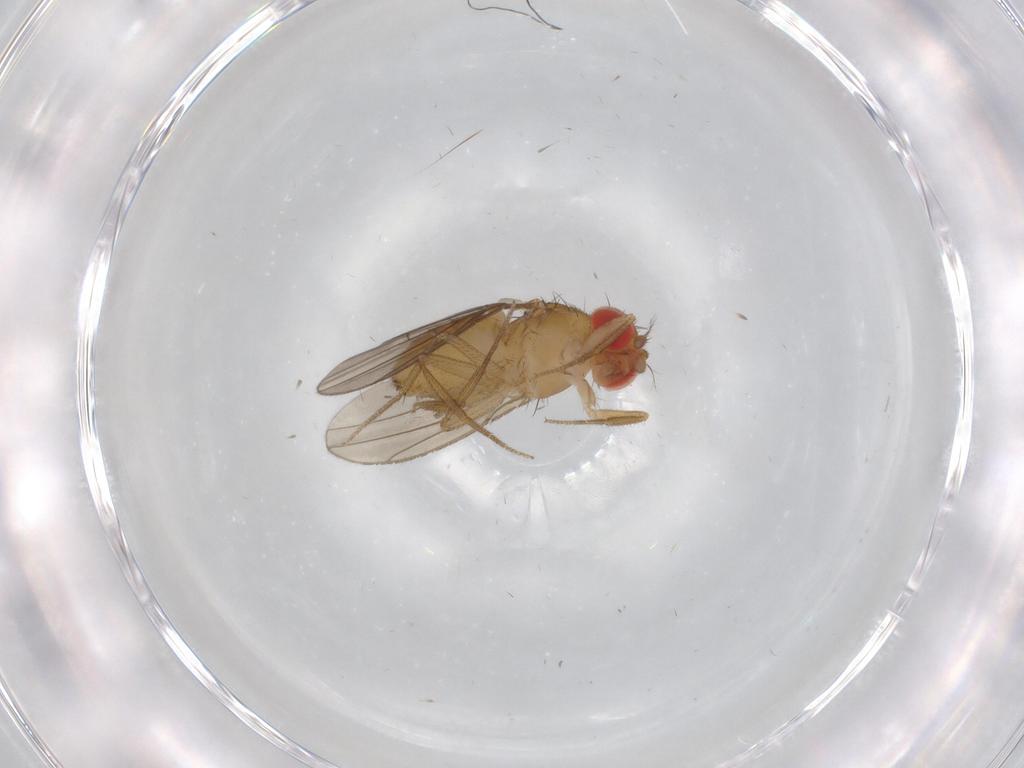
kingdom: Animalia
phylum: Arthropoda
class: Insecta
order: Diptera
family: Drosophilidae
